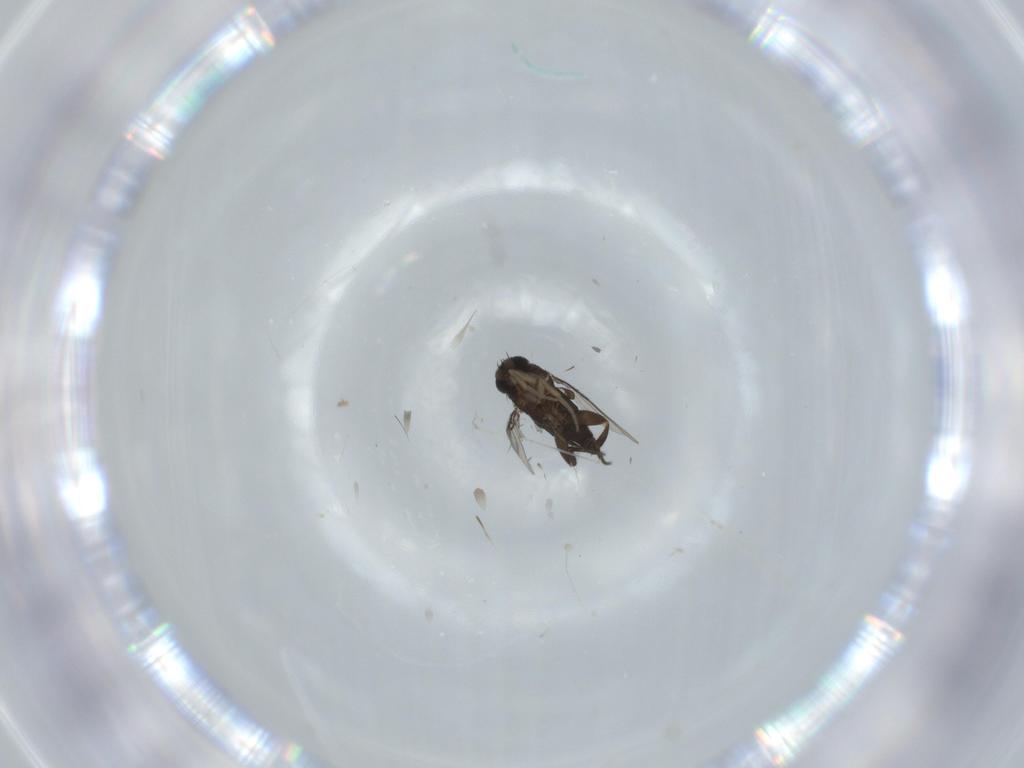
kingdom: Animalia
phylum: Arthropoda
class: Insecta
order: Diptera
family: Phoridae
